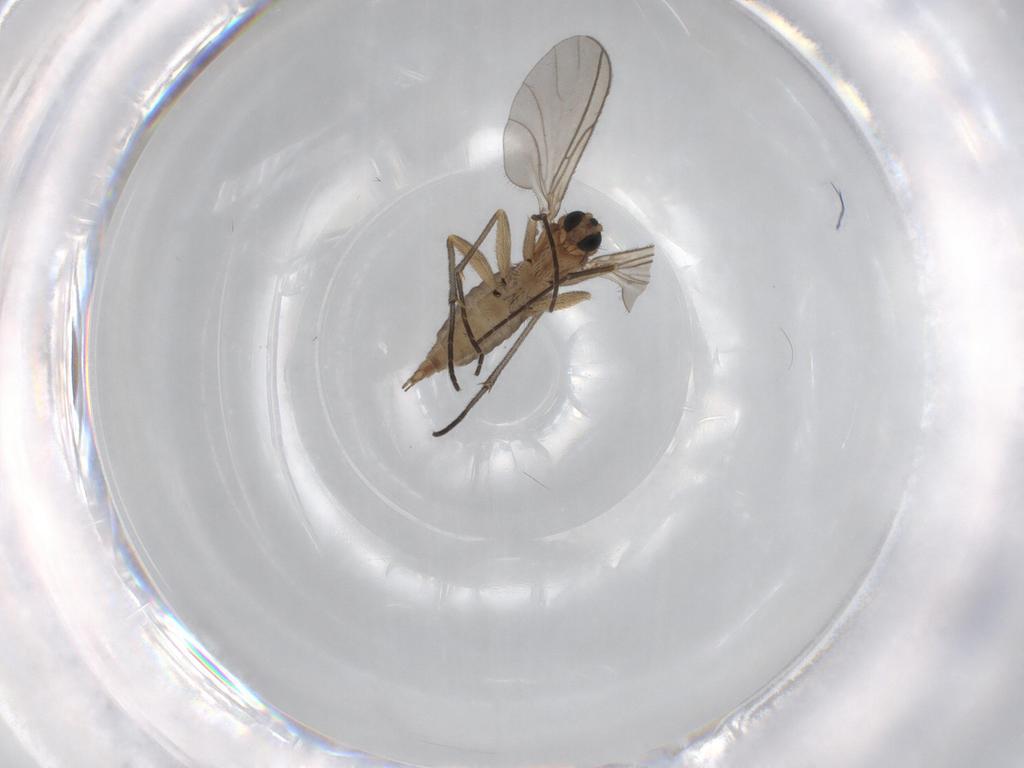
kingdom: Animalia
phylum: Arthropoda
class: Insecta
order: Diptera
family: Sciaridae
